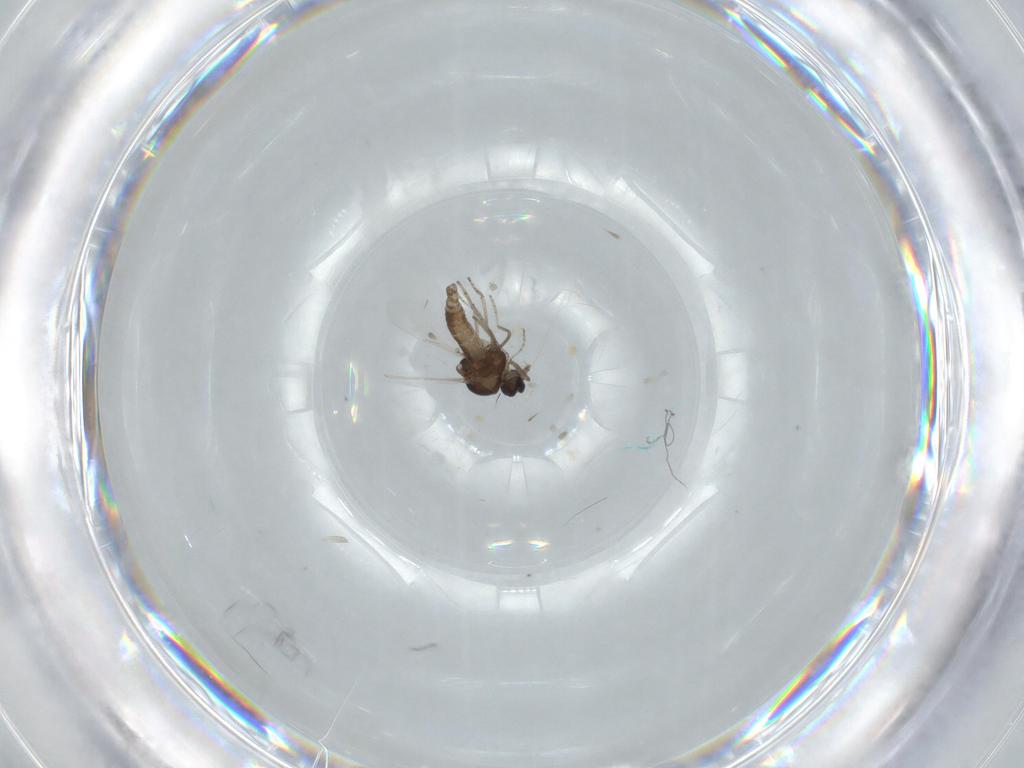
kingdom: Animalia
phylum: Arthropoda
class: Insecta
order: Diptera
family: Ceratopogonidae
